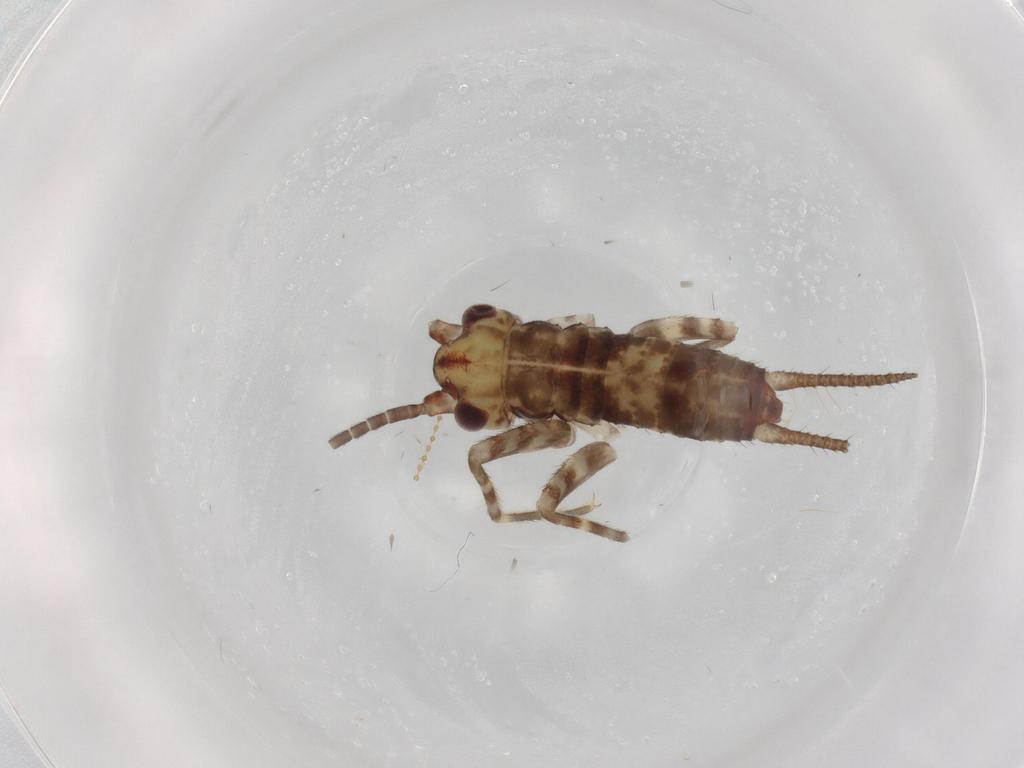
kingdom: Animalia
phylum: Arthropoda
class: Insecta
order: Orthoptera
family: Gryllidae
